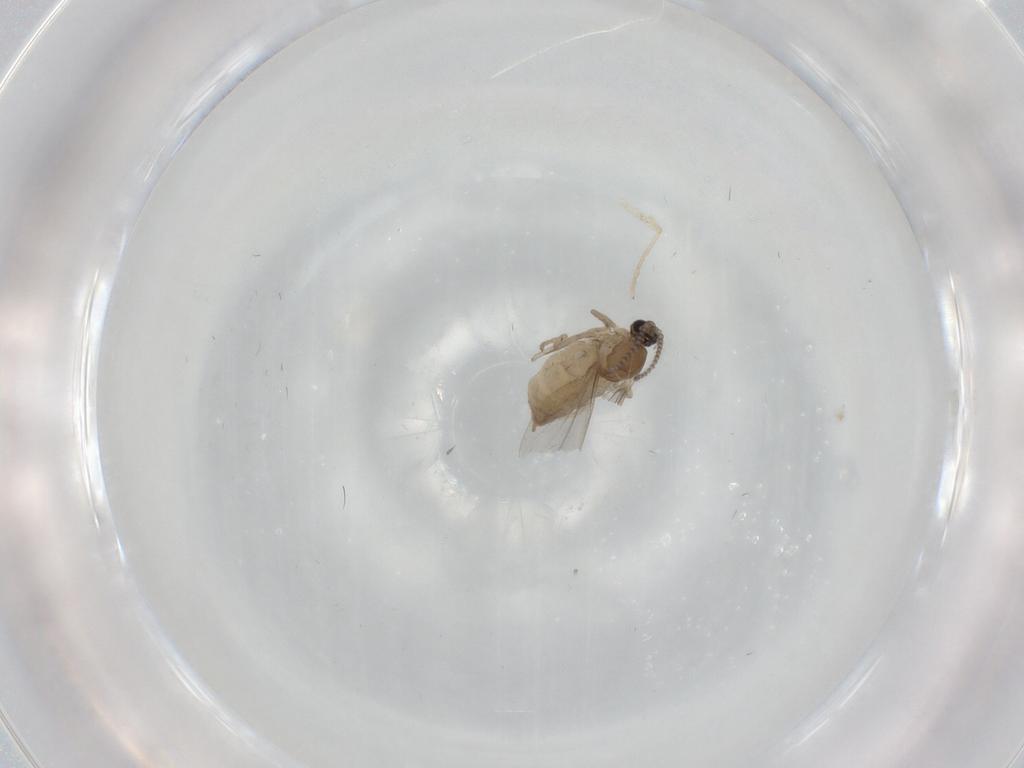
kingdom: Animalia
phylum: Arthropoda
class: Insecta
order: Diptera
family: Cecidomyiidae
